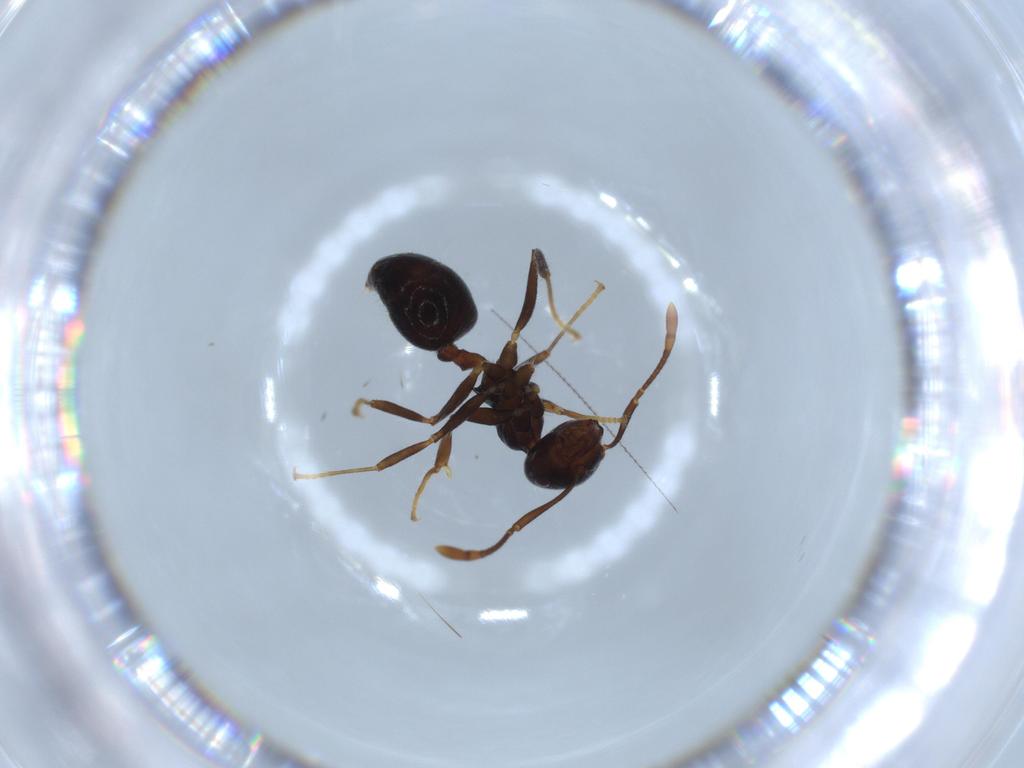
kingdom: Animalia
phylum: Arthropoda
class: Insecta
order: Hymenoptera
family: Formicidae
